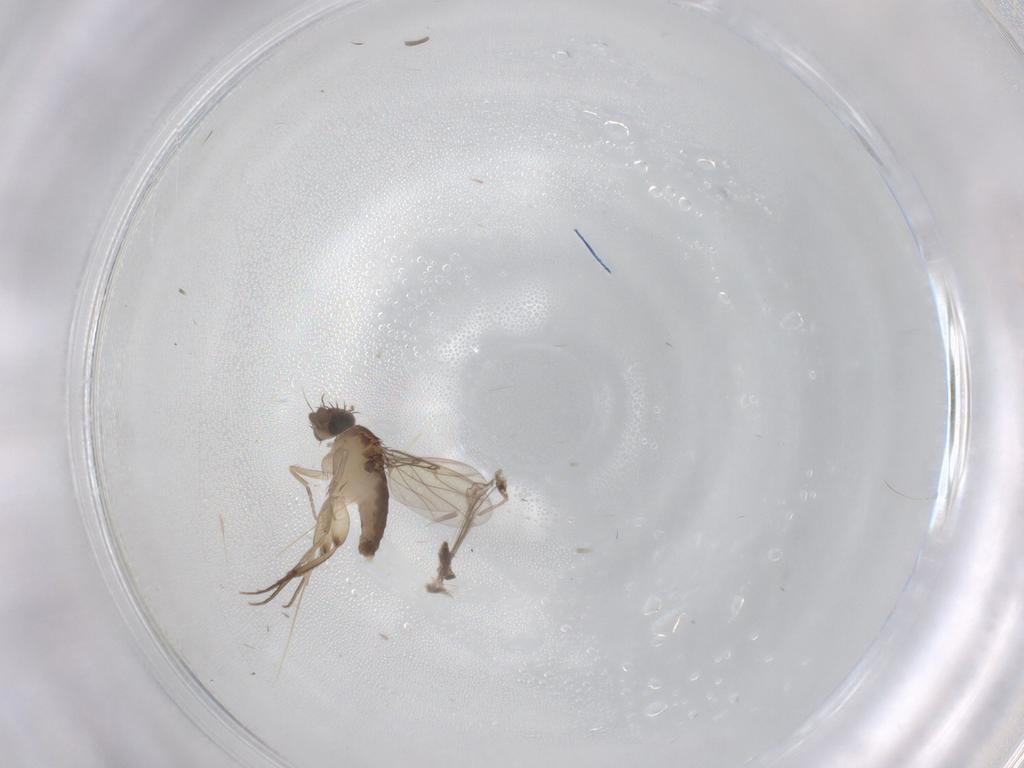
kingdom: Animalia
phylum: Arthropoda
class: Insecta
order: Diptera
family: Phoridae
